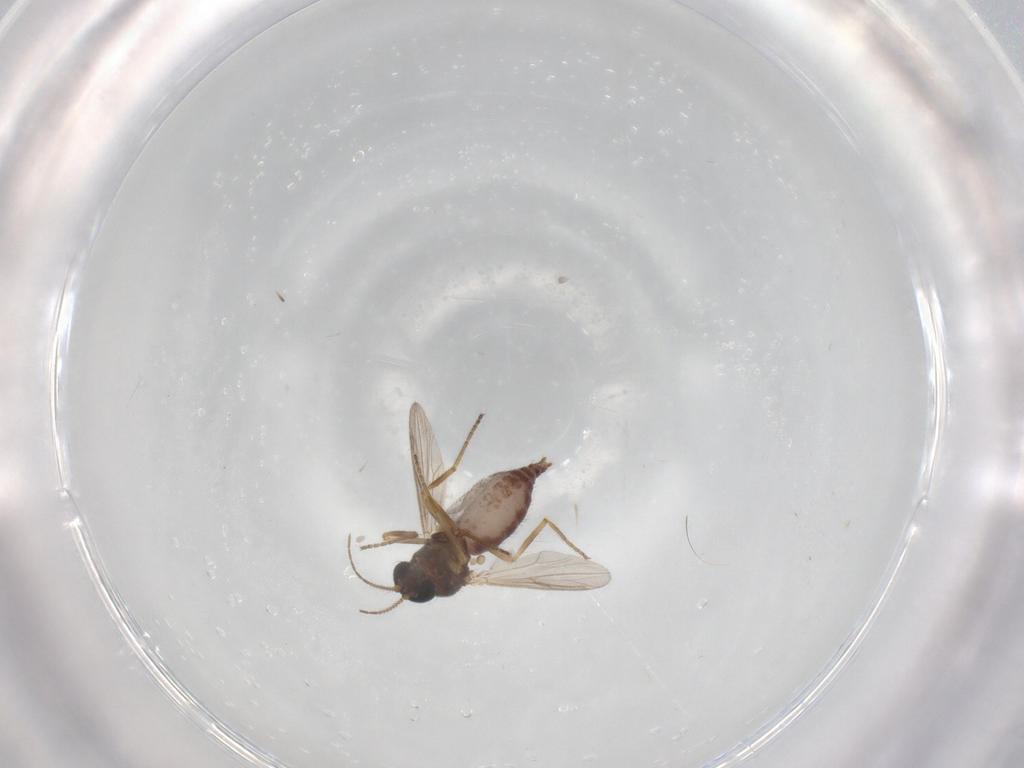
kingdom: Animalia
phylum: Arthropoda
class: Insecta
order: Diptera
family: Ceratopogonidae
